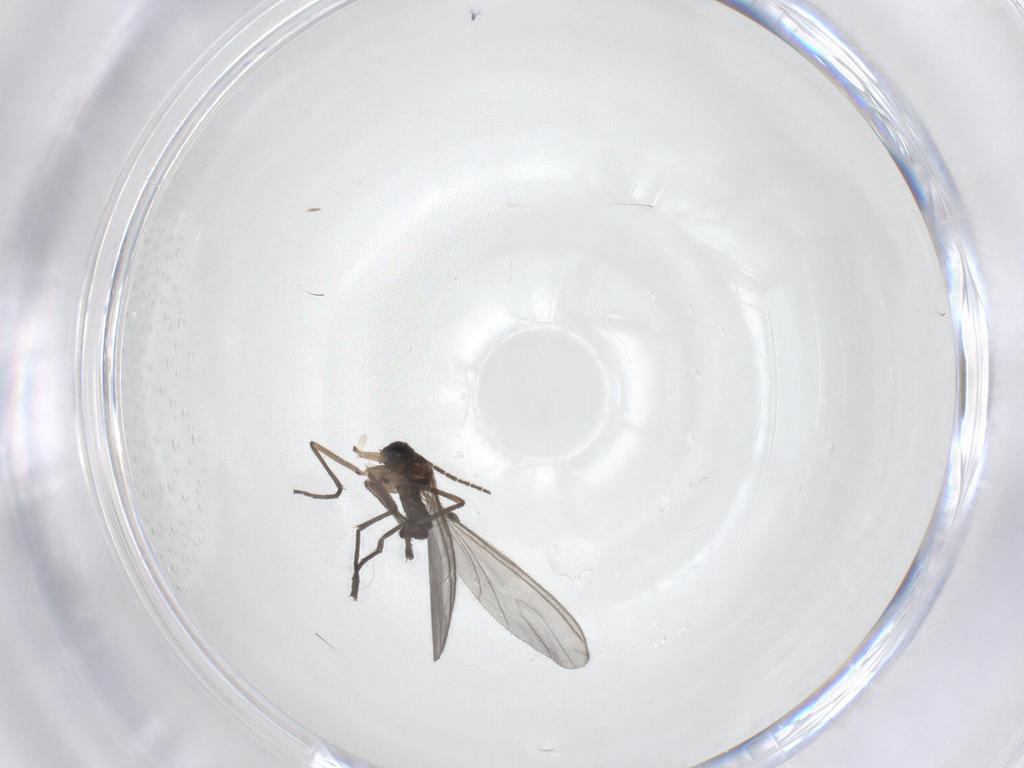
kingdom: Animalia
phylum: Arthropoda
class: Insecta
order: Diptera
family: Sciaridae
